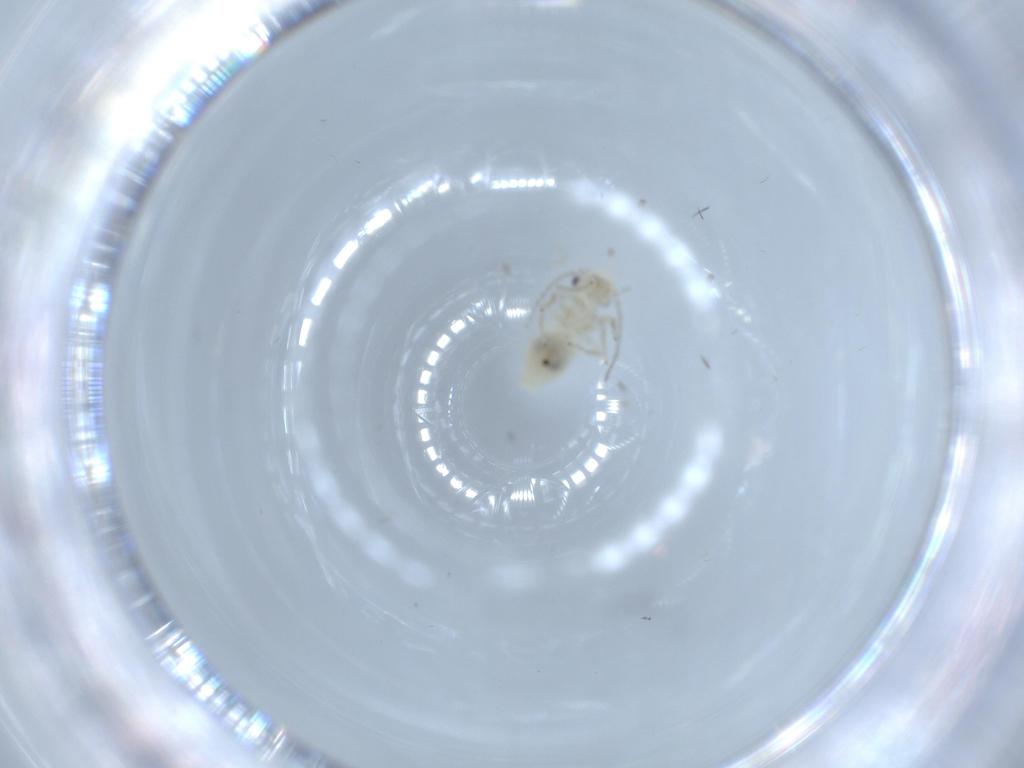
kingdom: Animalia
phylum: Arthropoda
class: Insecta
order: Psocodea
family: Caeciliusidae
